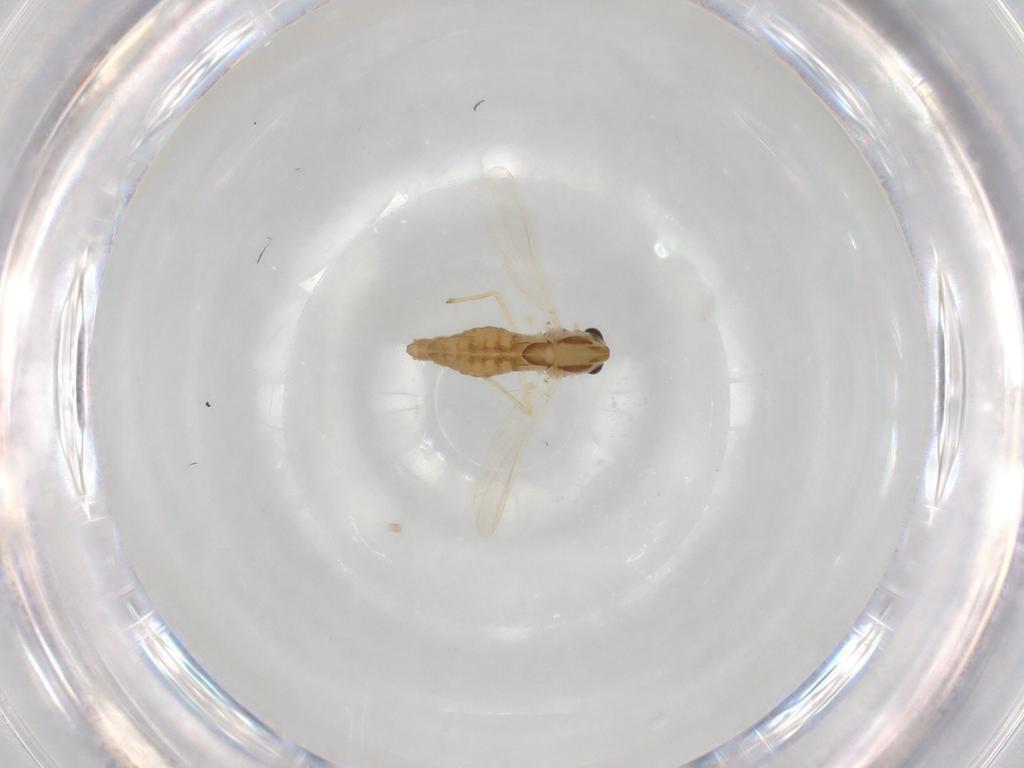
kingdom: Animalia
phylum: Arthropoda
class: Insecta
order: Diptera
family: Chironomidae
